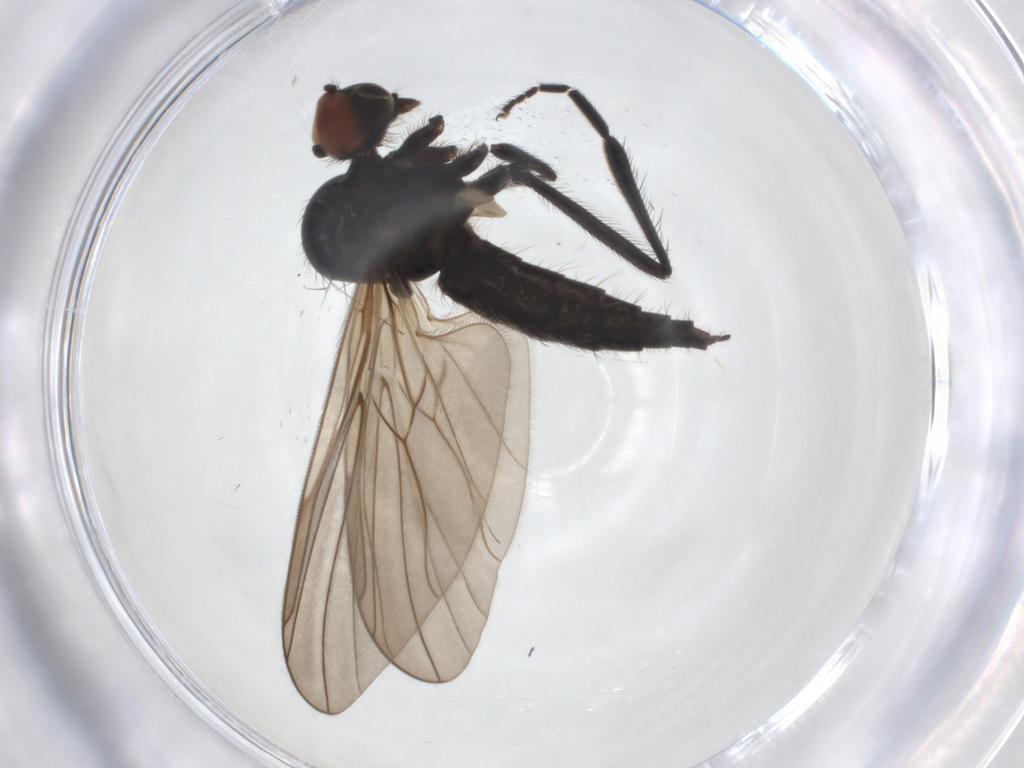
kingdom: Animalia
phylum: Arthropoda
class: Insecta
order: Diptera
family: Hybotidae
